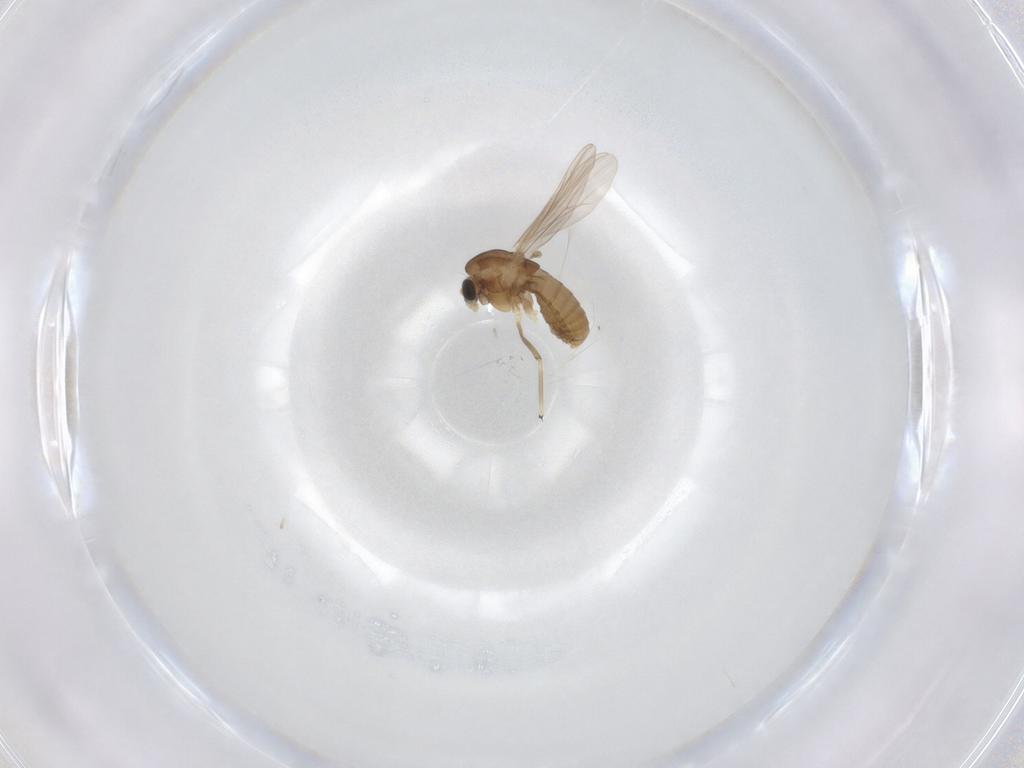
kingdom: Animalia
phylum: Arthropoda
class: Insecta
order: Diptera
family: Chironomidae
